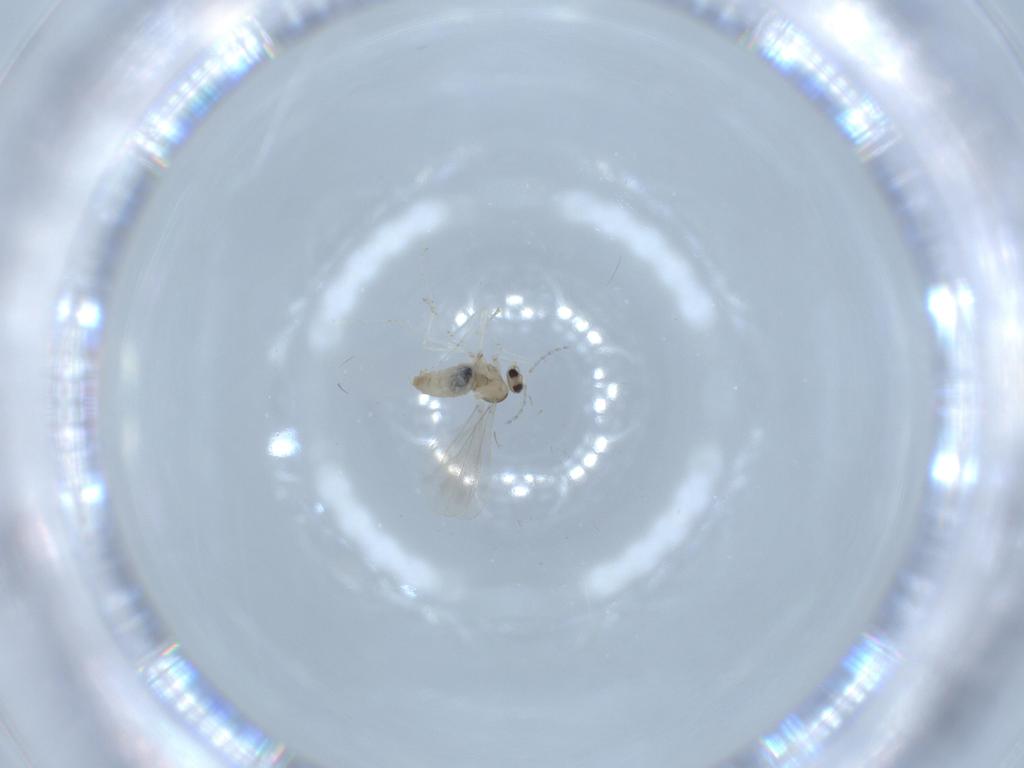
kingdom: Animalia
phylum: Arthropoda
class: Insecta
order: Diptera
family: Cecidomyiidae
